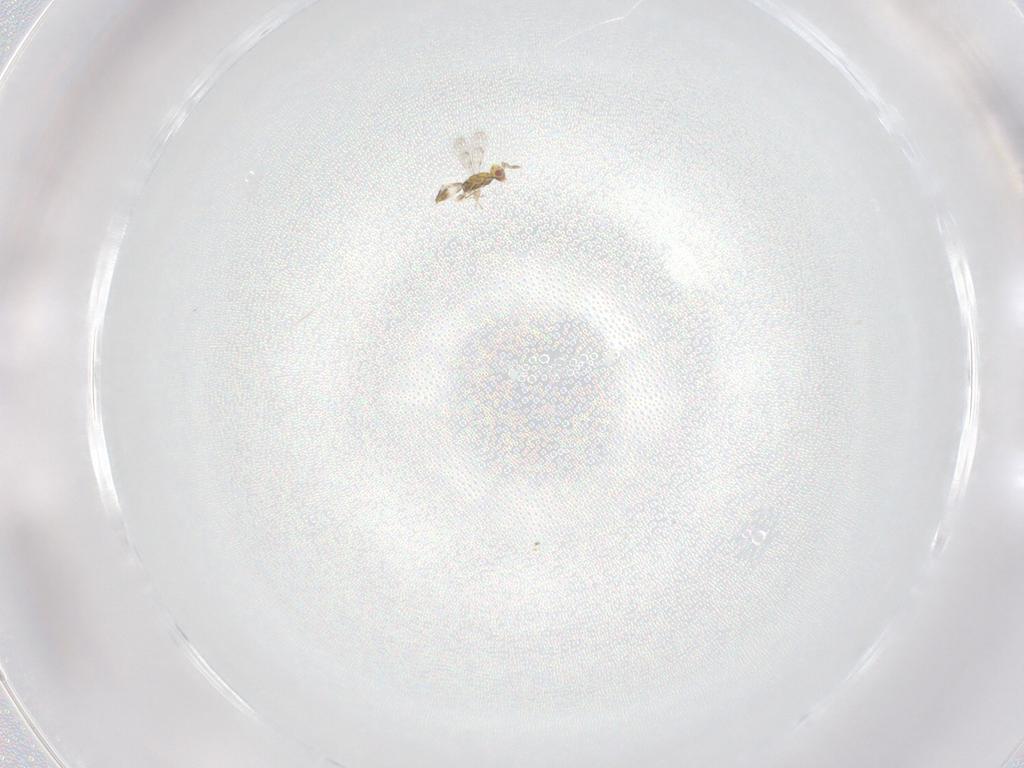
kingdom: Animalia
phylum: Arthropoda
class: Insecta
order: Hymenoptera
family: Eulophidae
